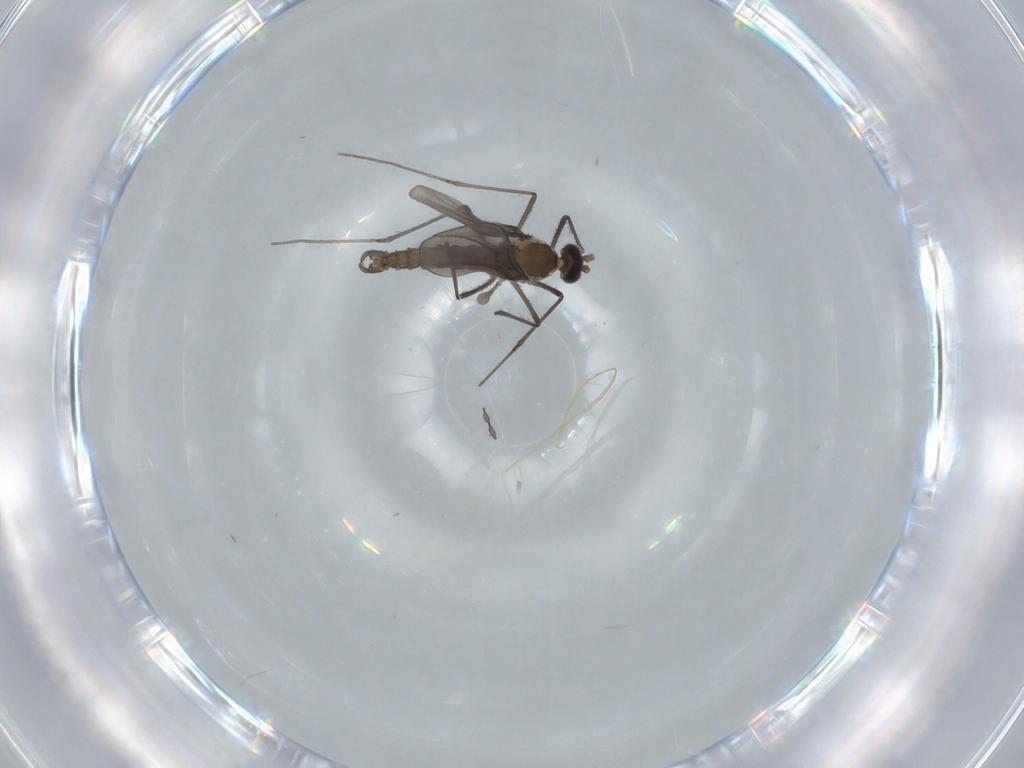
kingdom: Animalia
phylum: Arthropoda
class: Insecta
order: Diptera
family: Cecidomyiidae
